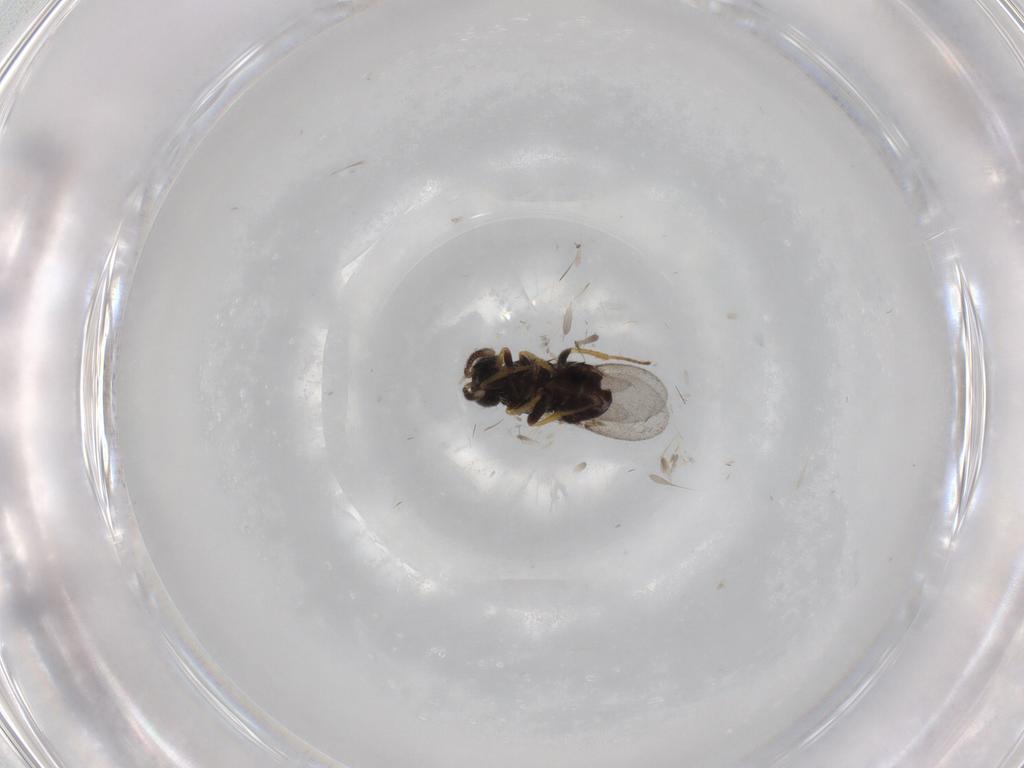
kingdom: Animalia
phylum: Arthropoda
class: Insecta
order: Hymenoptera
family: Encyrtidae
